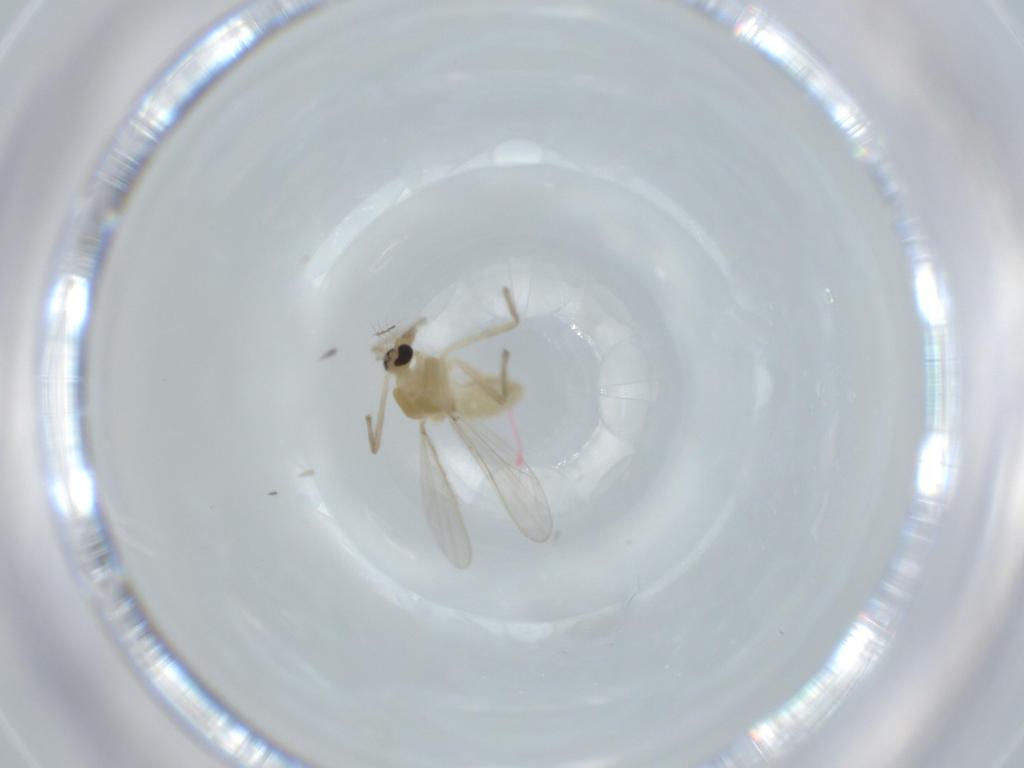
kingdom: Animalia
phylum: Arthropoda
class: Insecta
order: Diptera
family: Chironomidae
